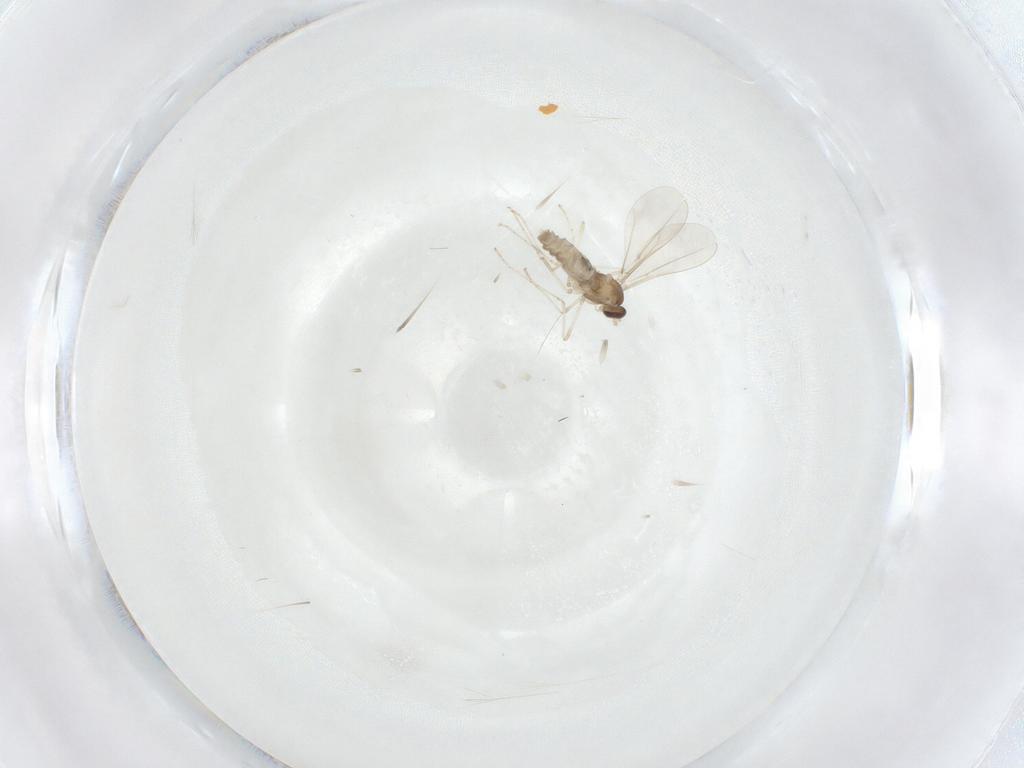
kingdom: Animalia
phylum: Arthropoda
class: Insecta
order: Diptera
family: Cecidomyiidae
